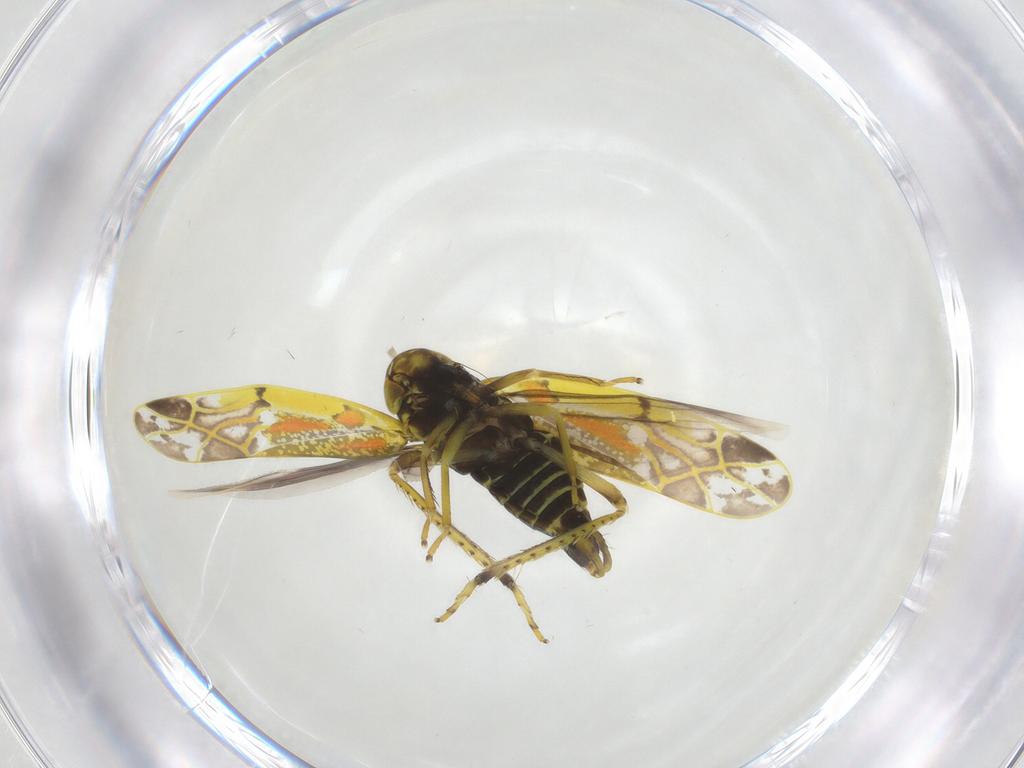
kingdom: Animalia
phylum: Arthropoda
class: Insecta
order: Hemiptera
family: Cicadellidae
